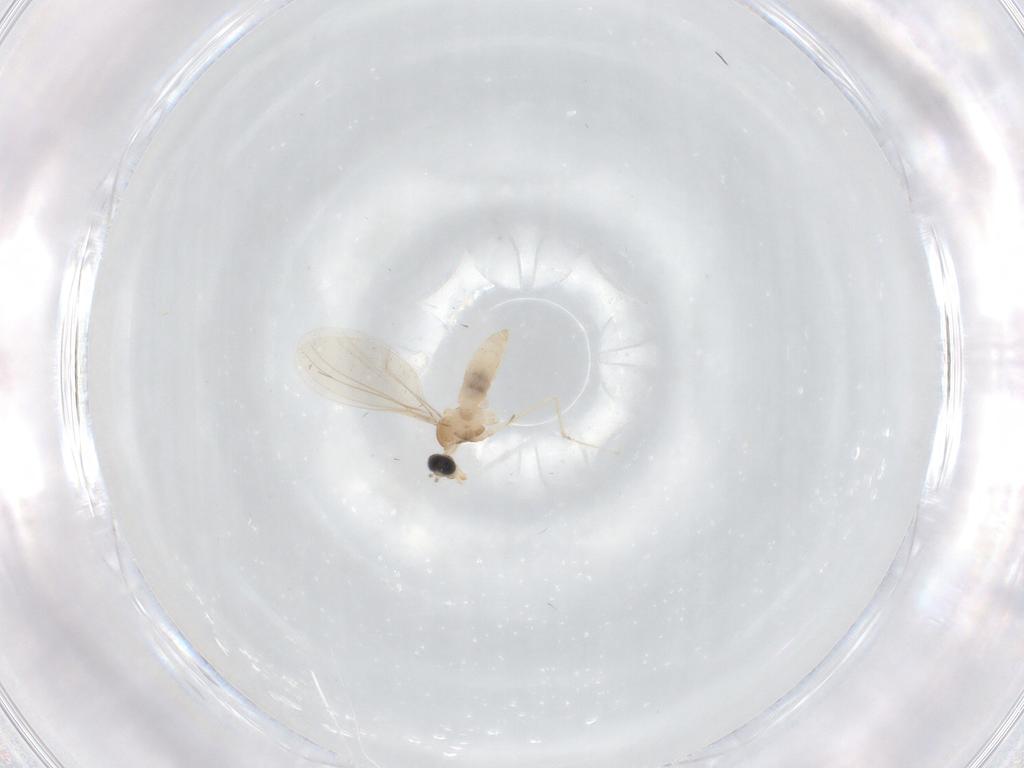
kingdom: Animalia
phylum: Arthropoda
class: Insecta
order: Diptera
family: Cecidomyiidae
